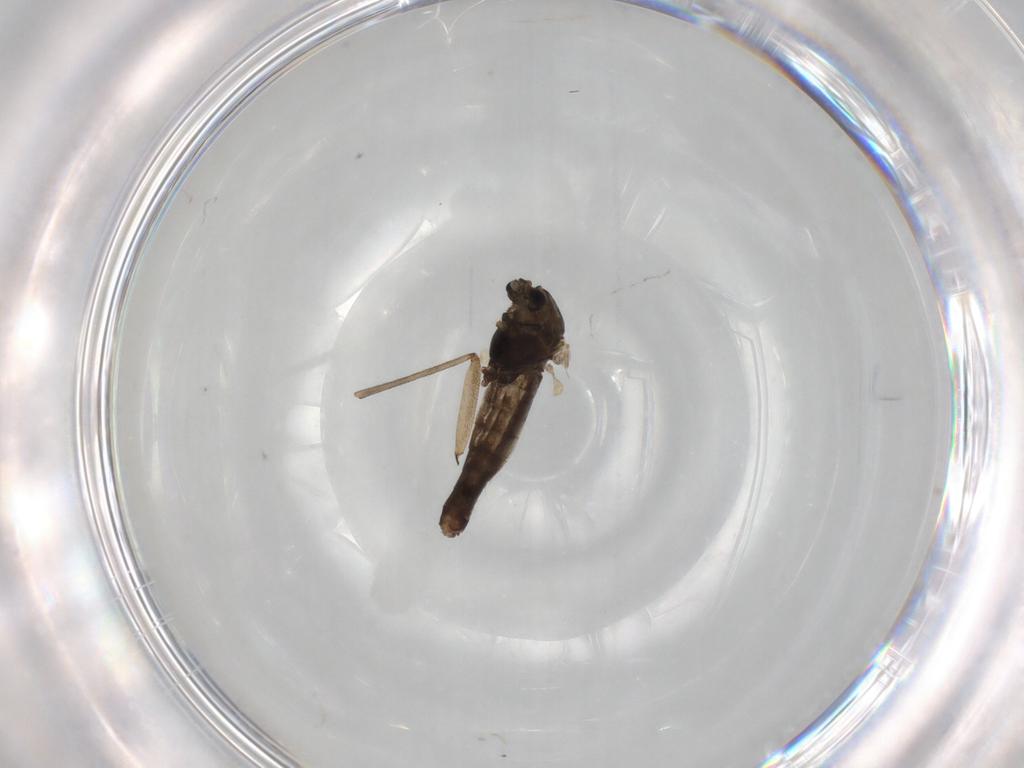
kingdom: Animalia
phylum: Arthropoda
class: Insecta
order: Diptera
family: Chironomidae
